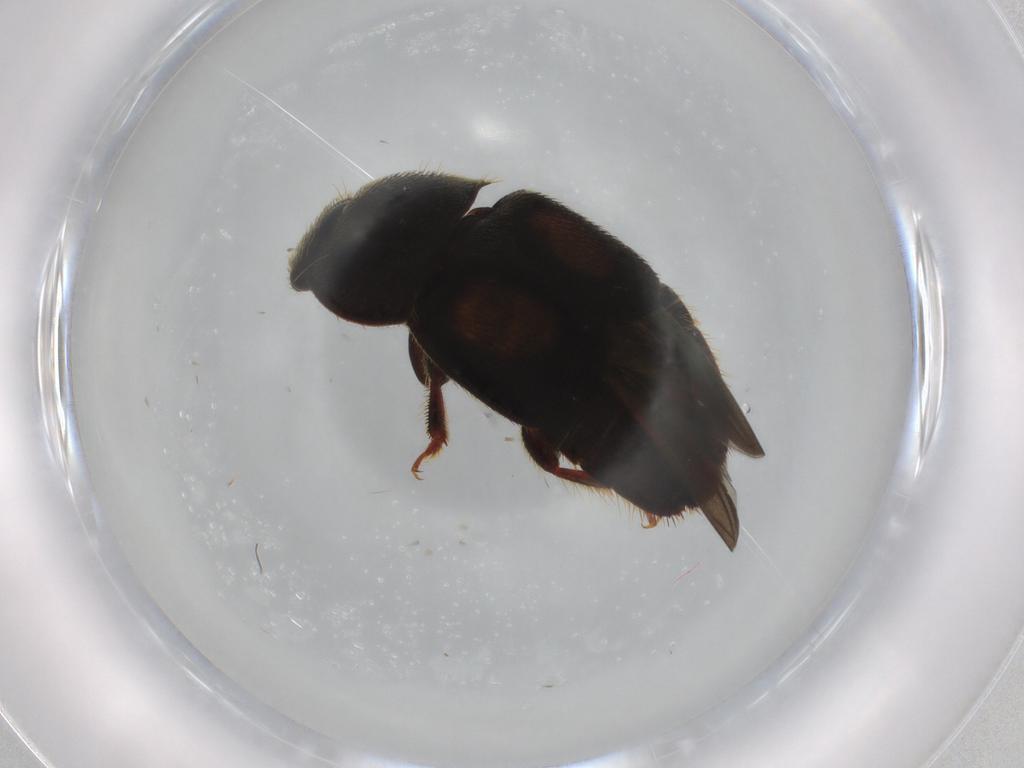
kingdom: Animalia
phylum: Arthropoda
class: Insecta
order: Coleoptera
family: Nitidulidae
